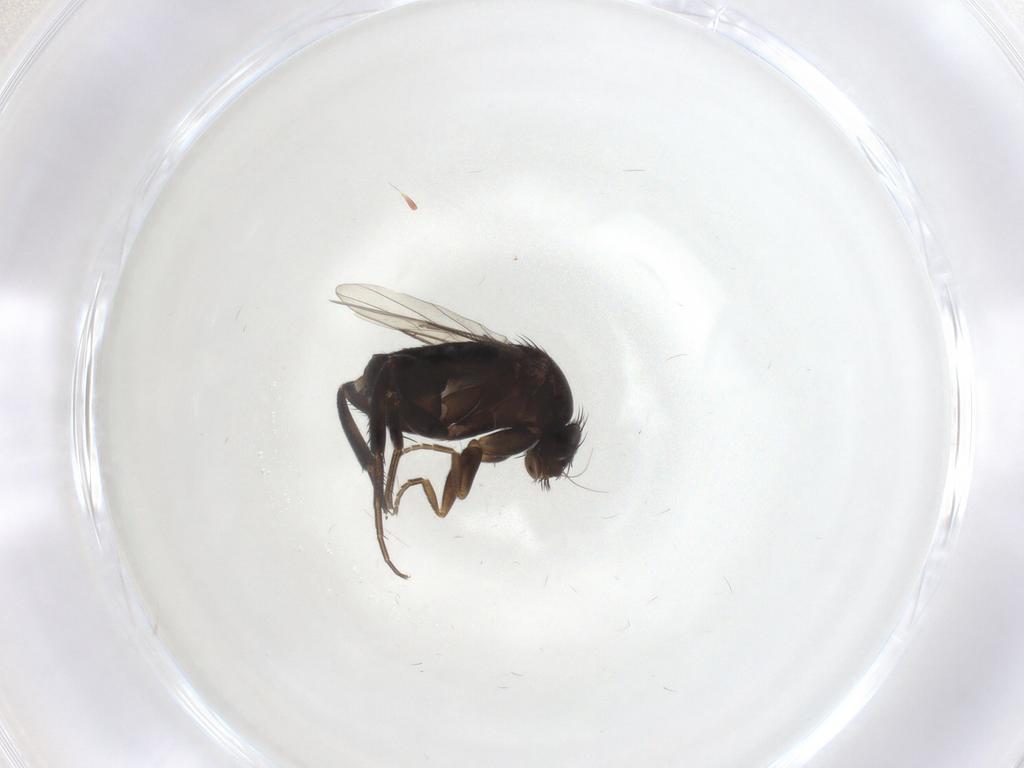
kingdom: Animalia
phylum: Arthropoda
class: Insecta
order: Diptera
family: Phoridae
